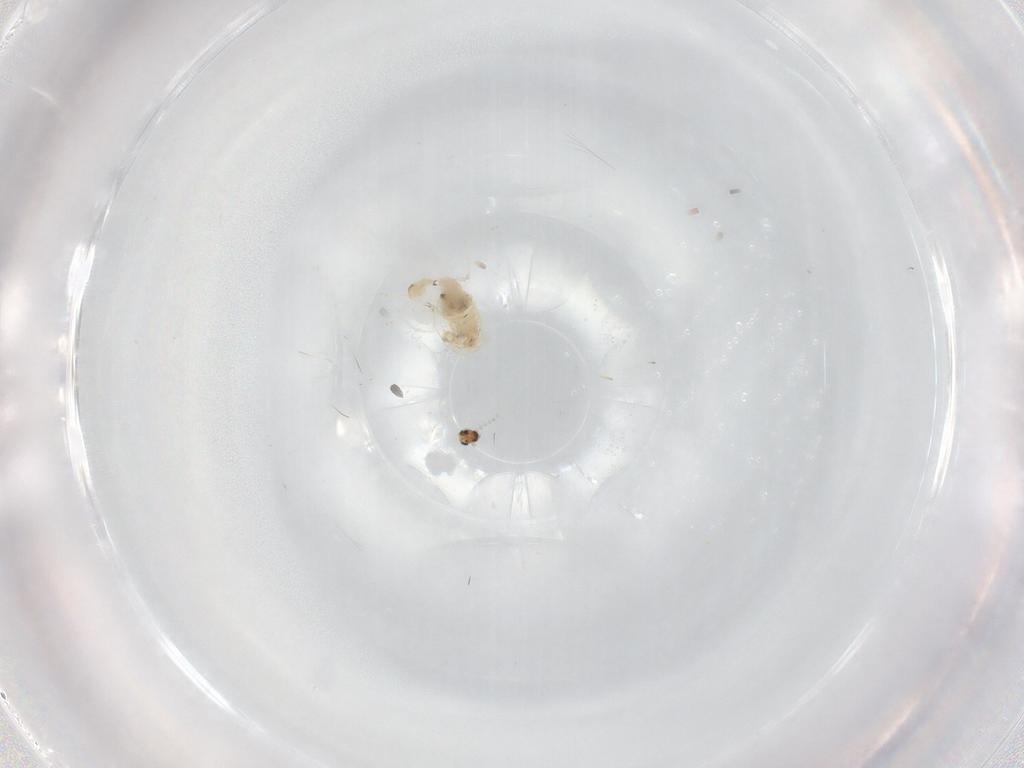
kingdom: Animalia
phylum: Arthropoda
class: Insecta
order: Diptera
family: Cecidomyiidae
